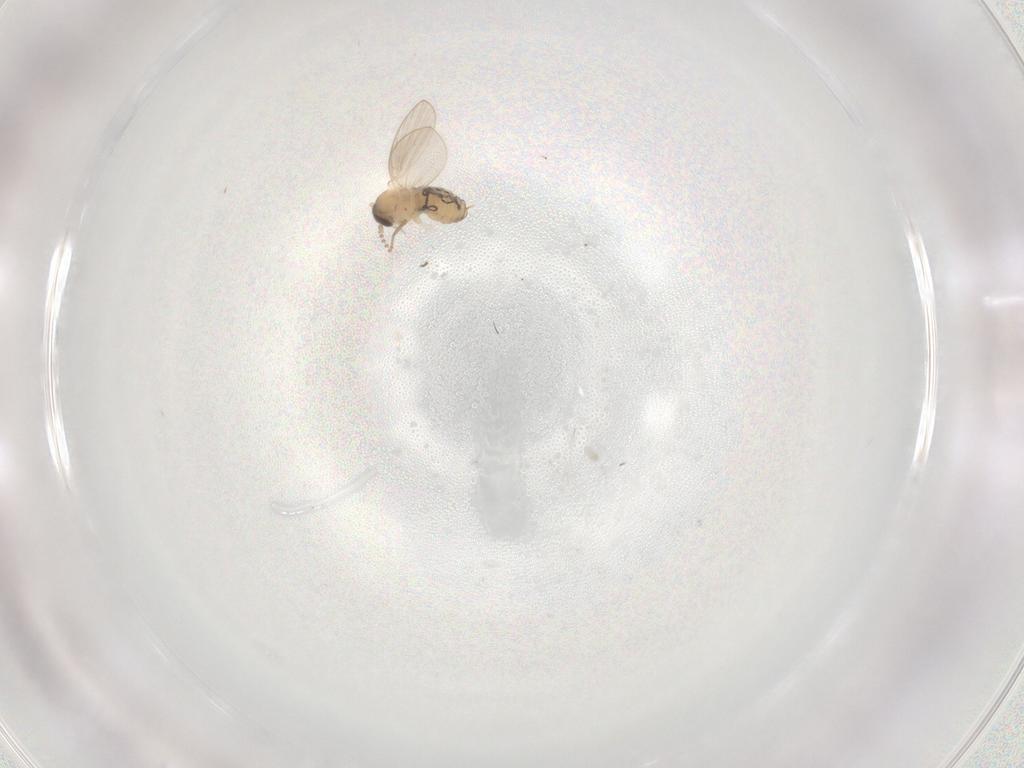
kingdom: Animalia
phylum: Arthropoda
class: Insecta
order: Diptera
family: Psychodidae
